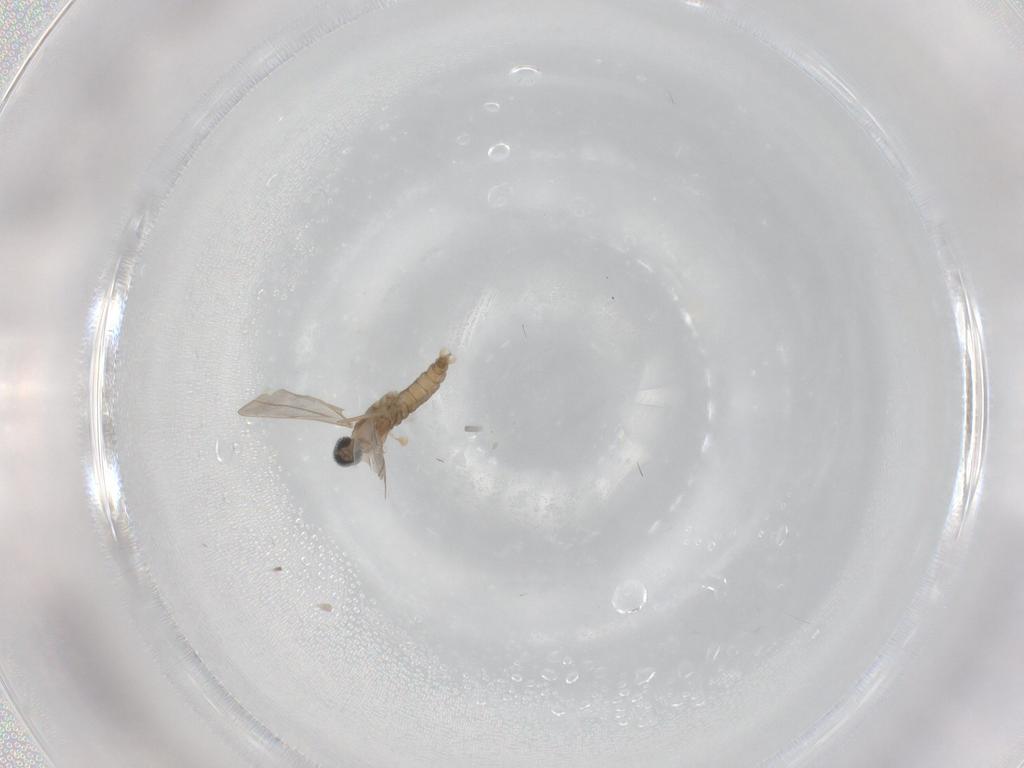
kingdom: Animalia
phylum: Arthropoda
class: Insecta
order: Diptera
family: Cecidomyiidae
